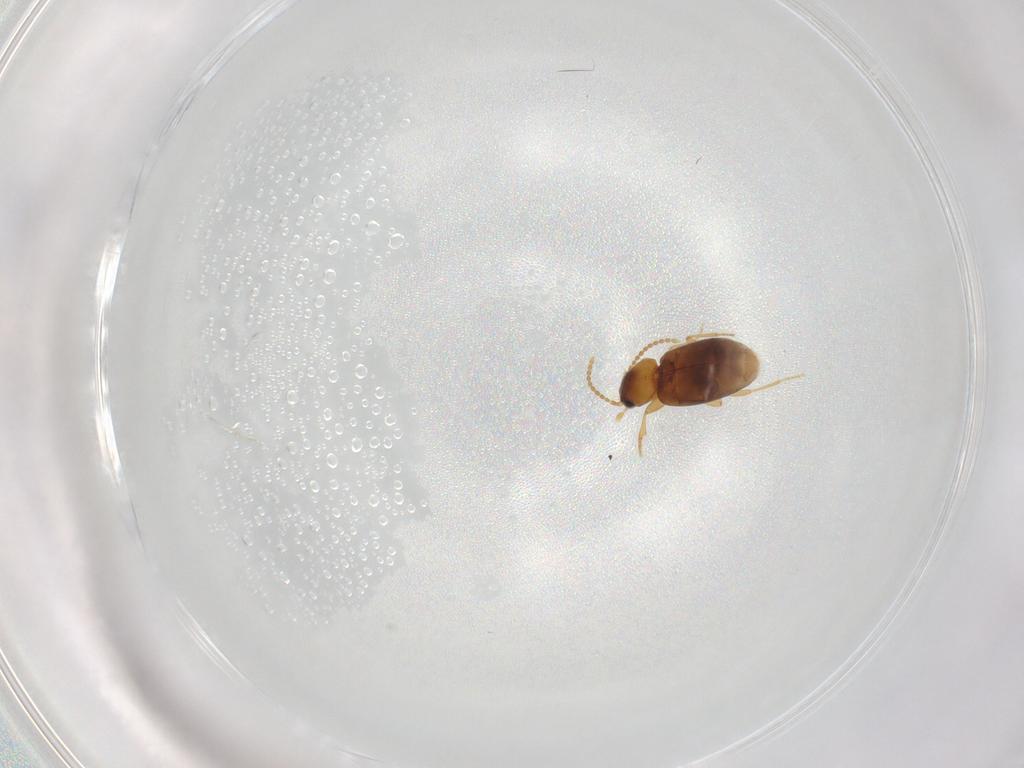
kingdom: Animalia
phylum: Arthropoda
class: Insecta
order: Coleoptera
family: Carabidae
